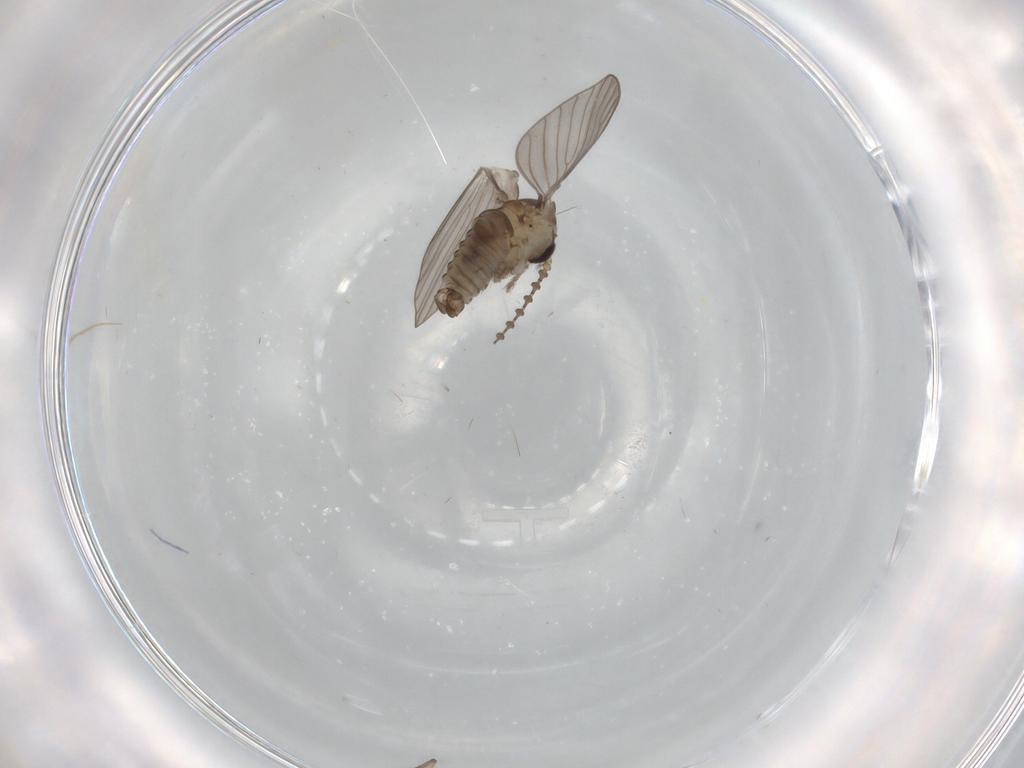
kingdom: Animalia
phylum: Arthropoda
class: Insecta
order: Diptera
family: Psychodidae
